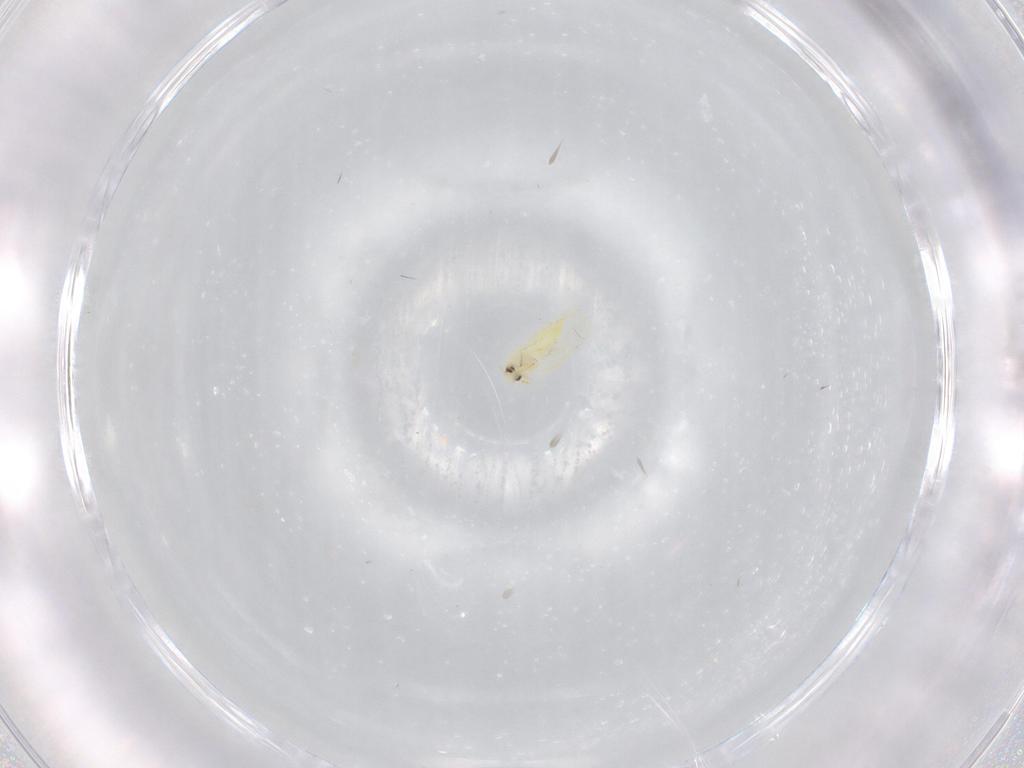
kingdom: Animalia
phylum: Arthropoda
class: Insecta
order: Hemiptera
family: Aleyrodidae
